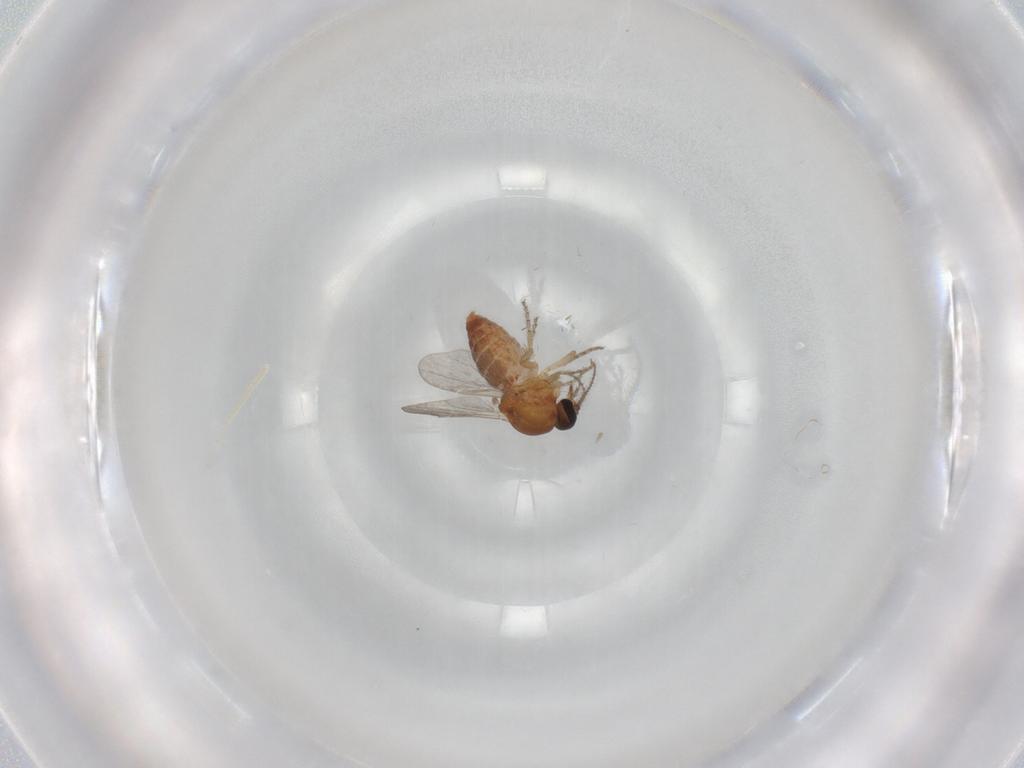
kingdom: Animalia
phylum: Arthropoda
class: Insecta
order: Diptera
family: Ceratopogonidae
